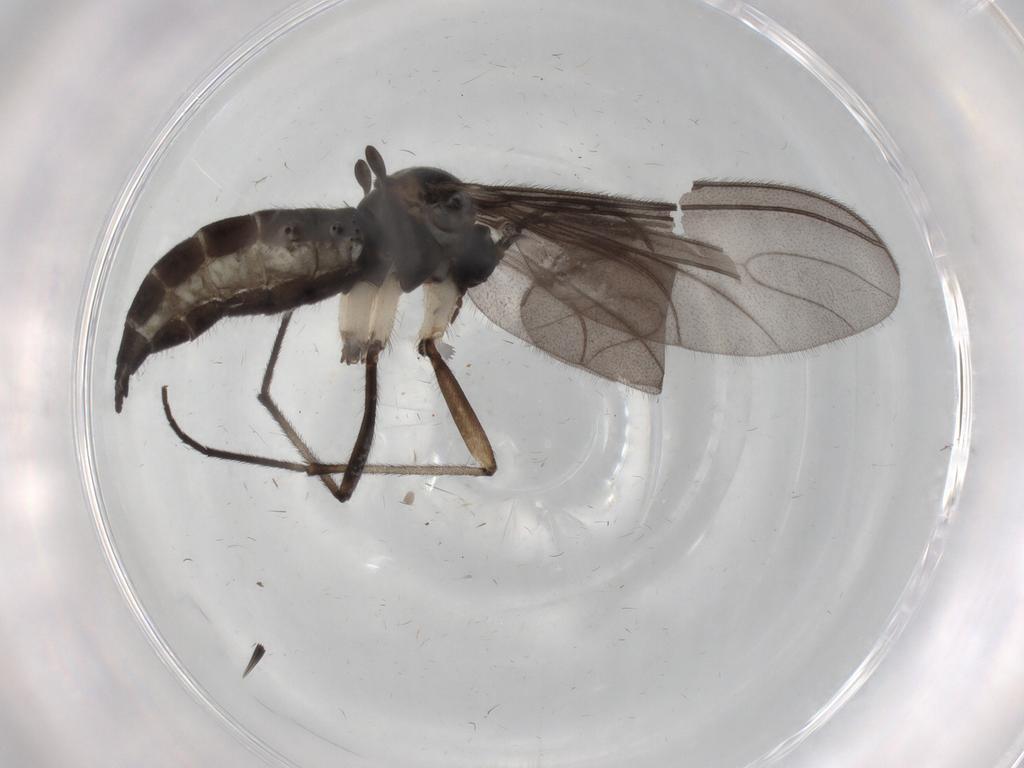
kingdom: Animalia
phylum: Arthropoda
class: Insecta
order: Diptera
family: Sciaridae
